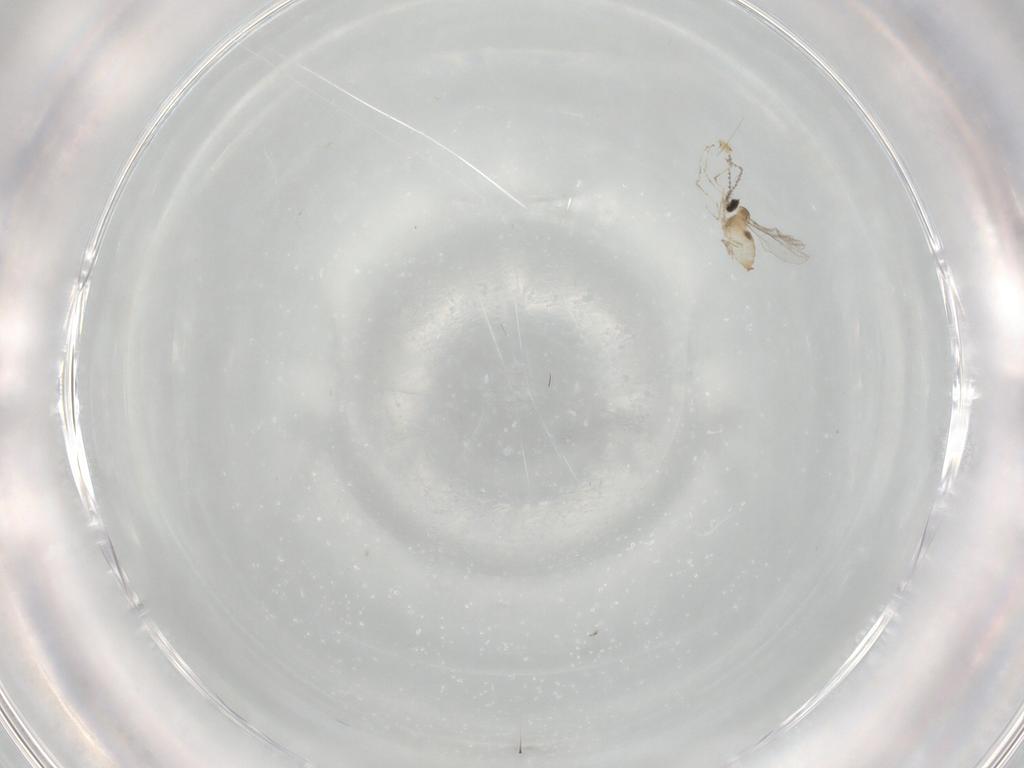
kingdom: Animalia
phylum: Arthropoda
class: Insecta
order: Diptera
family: Cecidomyiidae
